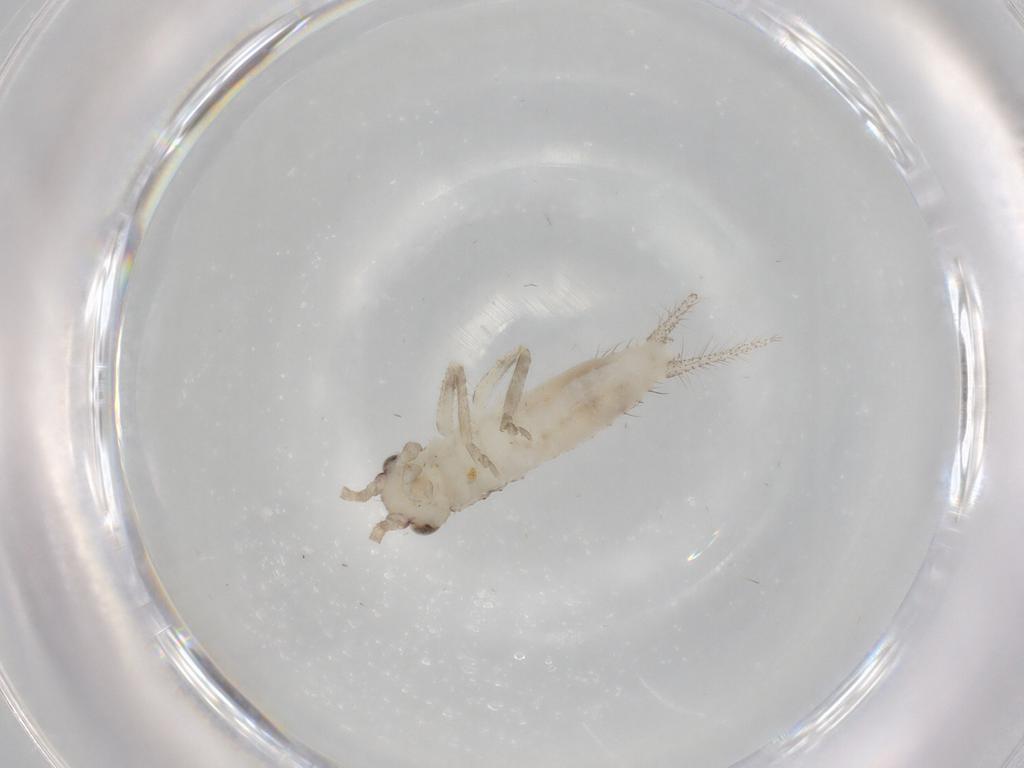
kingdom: Animalia
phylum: Arthropoda
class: Insecta
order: Orthoptera
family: Gryllidae
